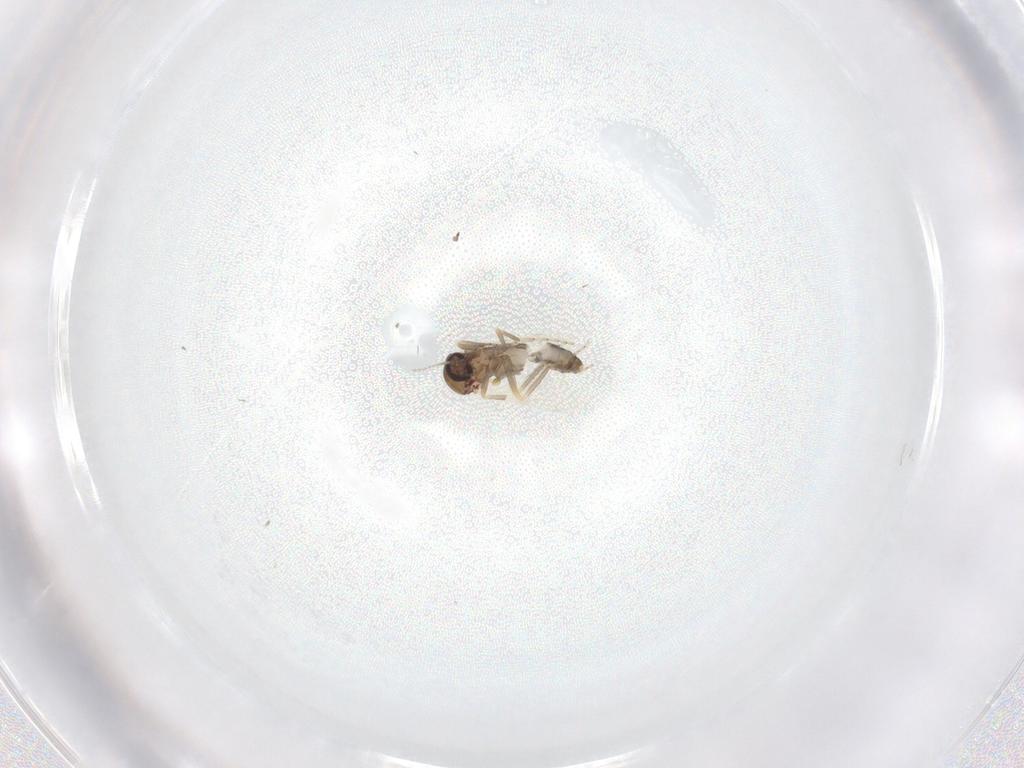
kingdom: Animalia
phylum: Arthropoda
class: Insecta
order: Diptera
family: Ceratopogonidae
